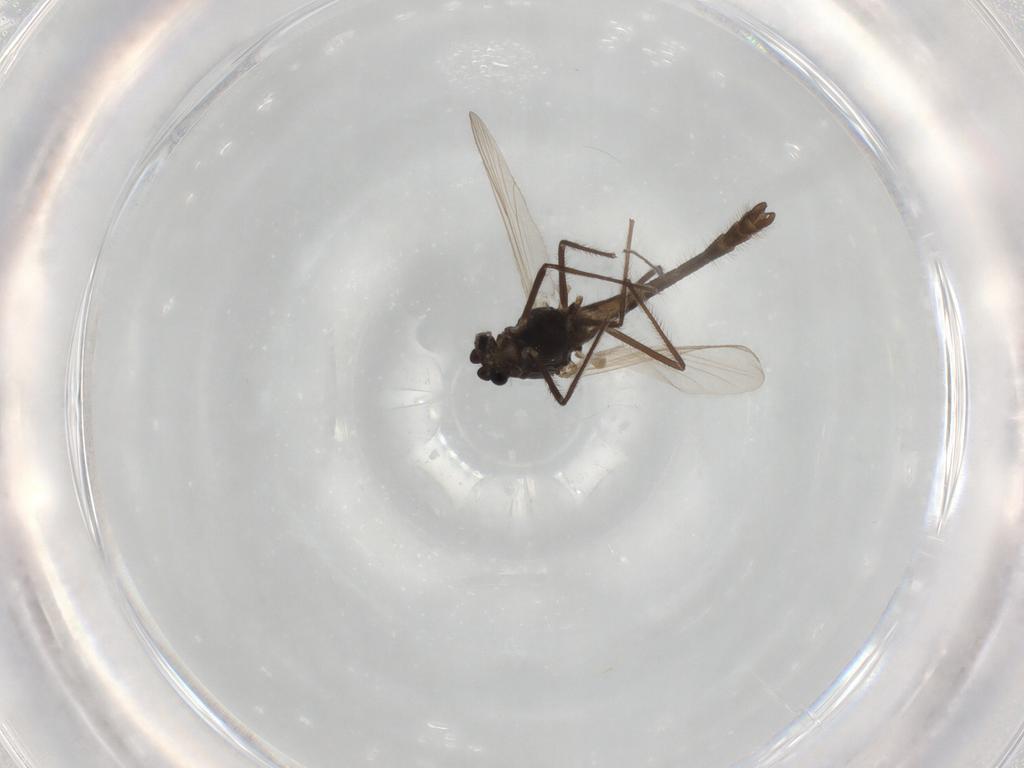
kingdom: Animalia
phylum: Arthropoda
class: Insecta
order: Diptera
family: Chironomidae
